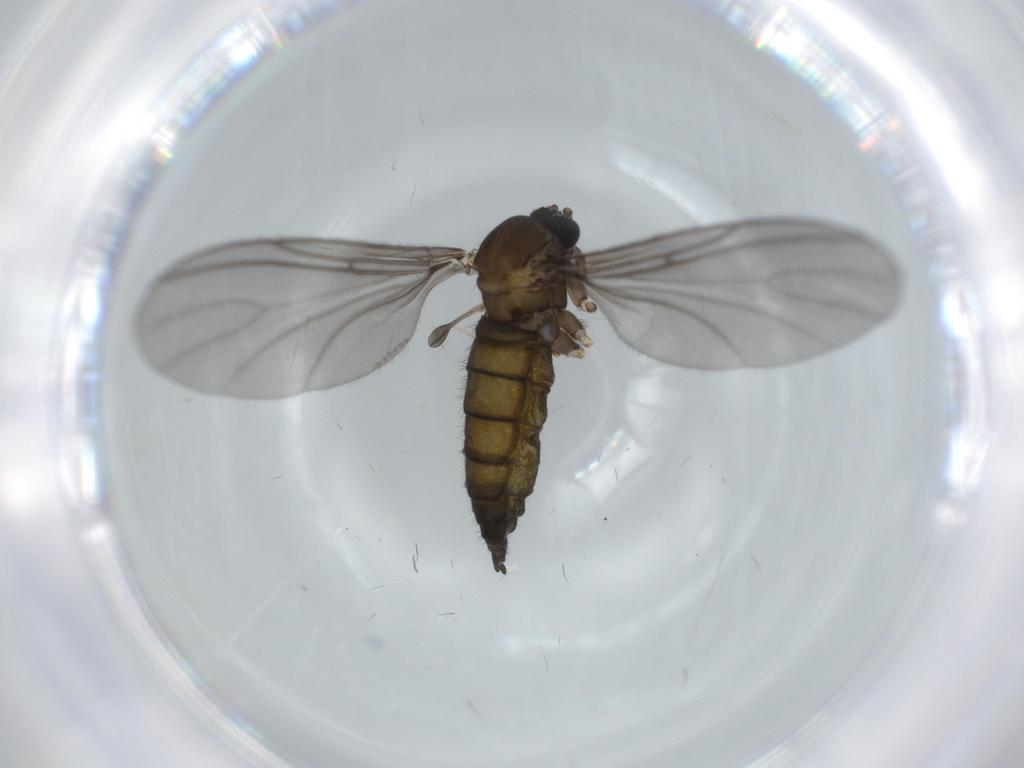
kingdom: Animalia
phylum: Arthropoda
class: Insecta
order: Diptera
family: Sciaridae
